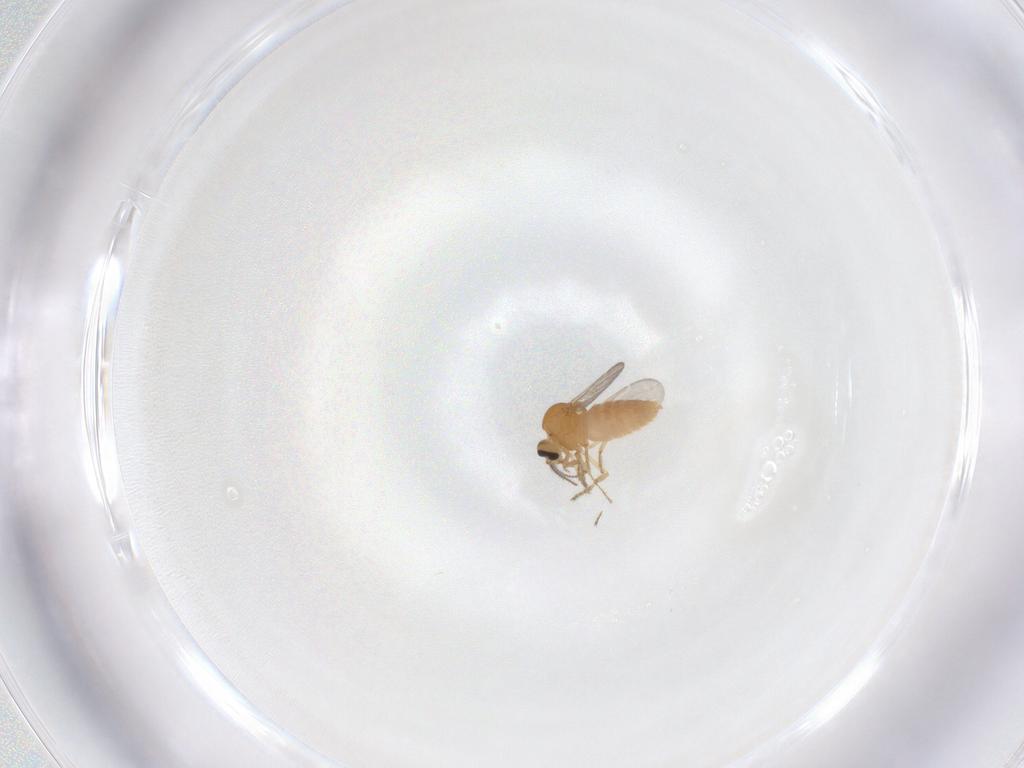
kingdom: Animalia
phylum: Arthropoda
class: Insecta
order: Diptera
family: Ceratopogonidae
